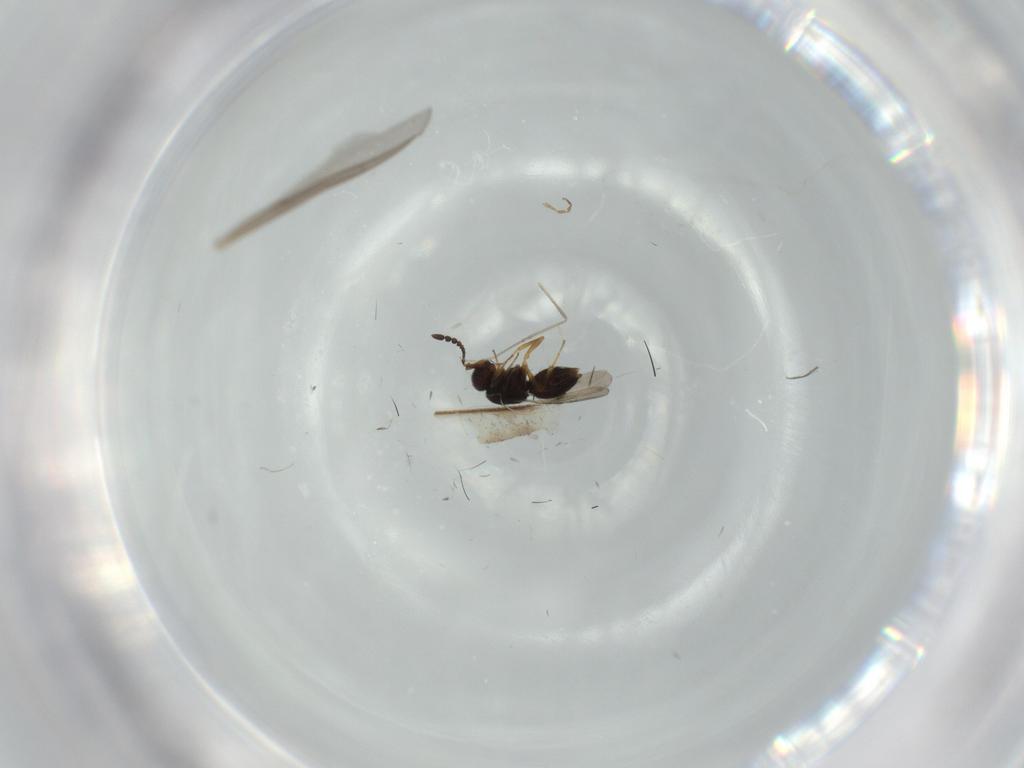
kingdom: Animalia
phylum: Arthropoda
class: Insecta
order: Hymenoptera
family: Braconidae
